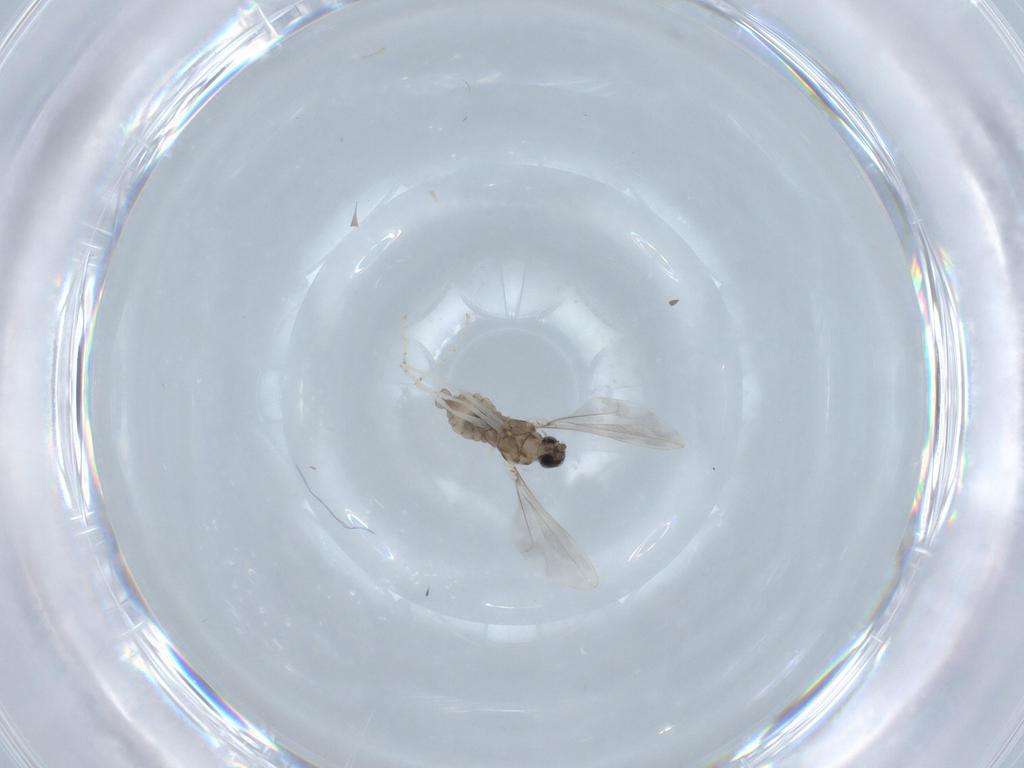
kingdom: Animalia
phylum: Arthropoda
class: Insecta
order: Diptera
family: Cecidomyiidae
